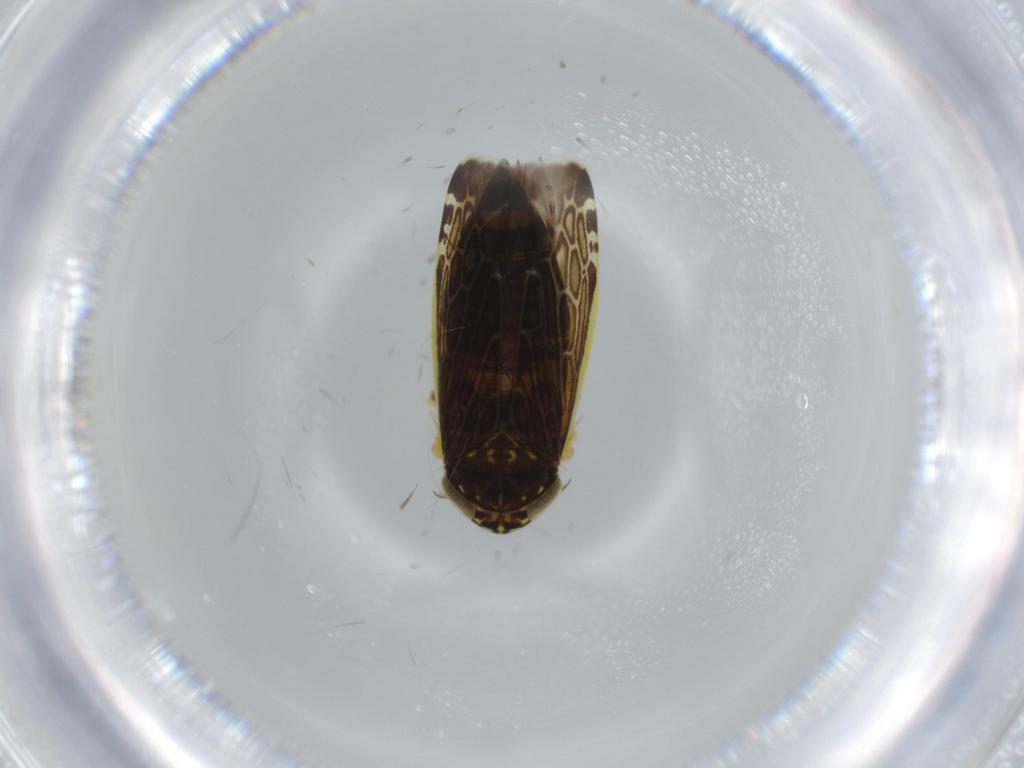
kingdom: Animalia
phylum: Arthropoda
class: Insecta
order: Hemiptera
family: Cicadellidae
